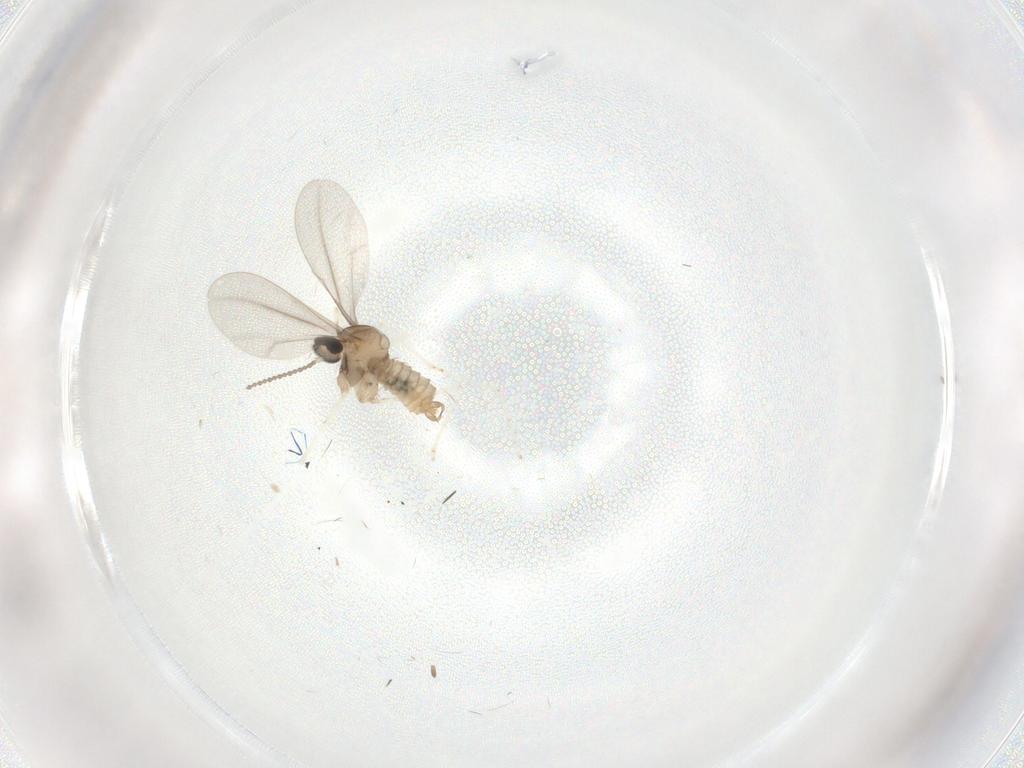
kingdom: Animalia
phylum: Arthropoda
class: Insecta
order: Diptera
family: Cecidomyiidae
